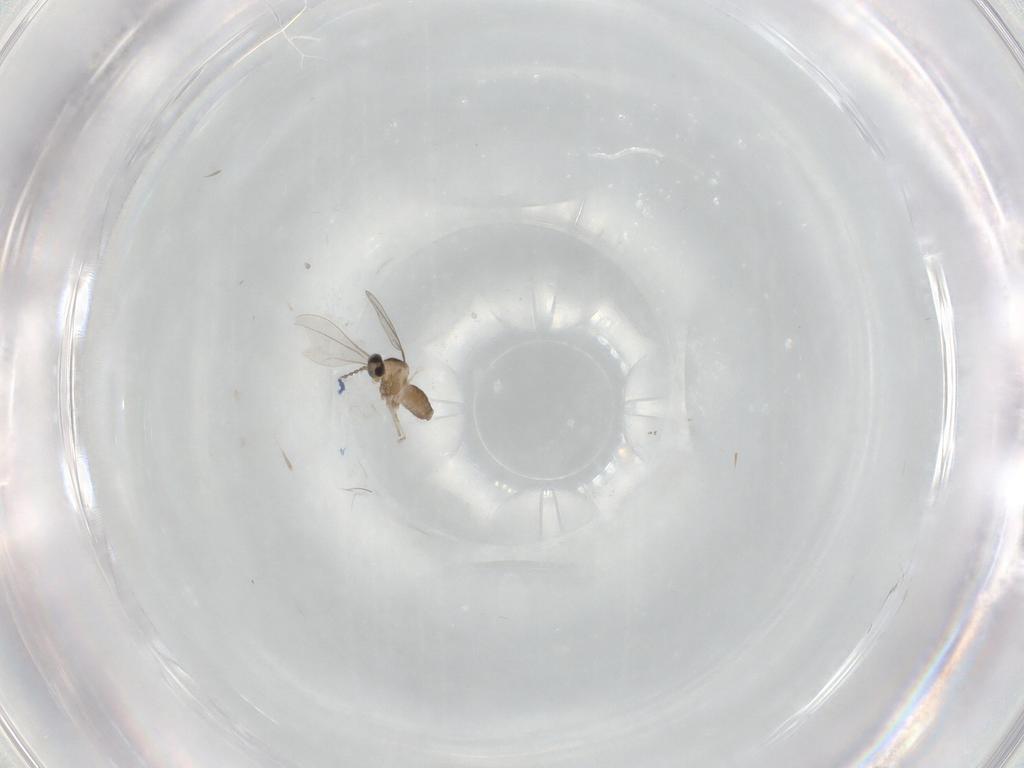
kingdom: Animalia
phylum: Arthropoda
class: Insecta
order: Diptera
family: Cecidomyiidae
